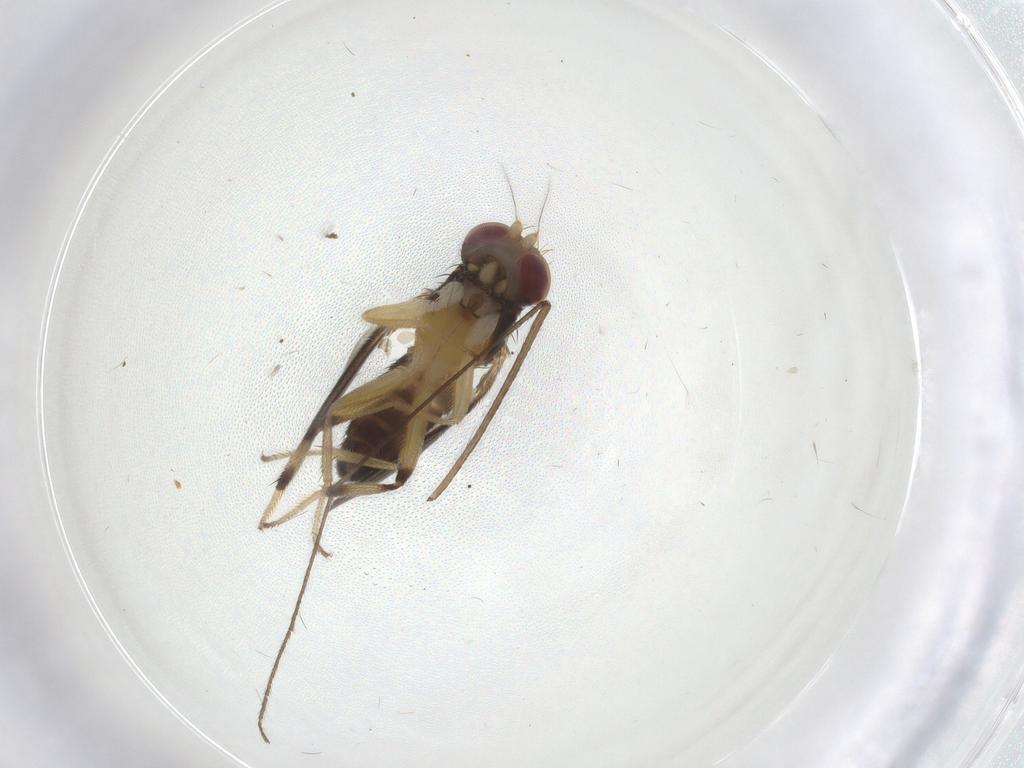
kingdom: Animalia
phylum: Arthropoda
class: Insecta
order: Diptera
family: Clusiidae
